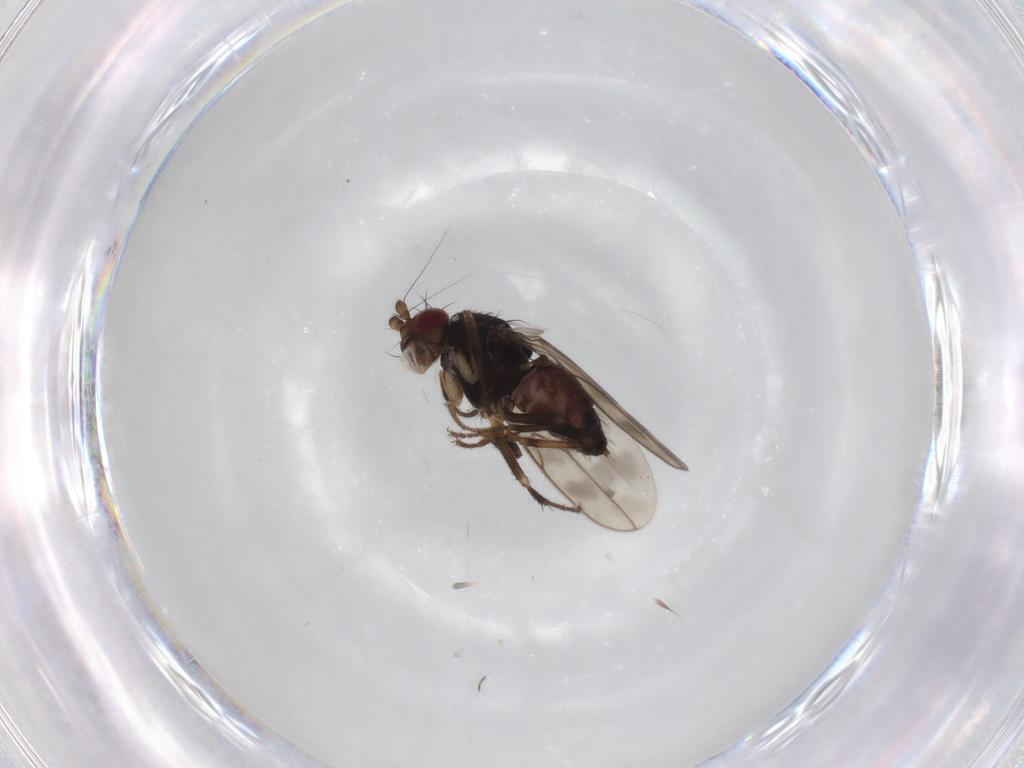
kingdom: Animalia
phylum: Arthropoda
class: Insecta
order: Diptera
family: Sphaeroceridae
